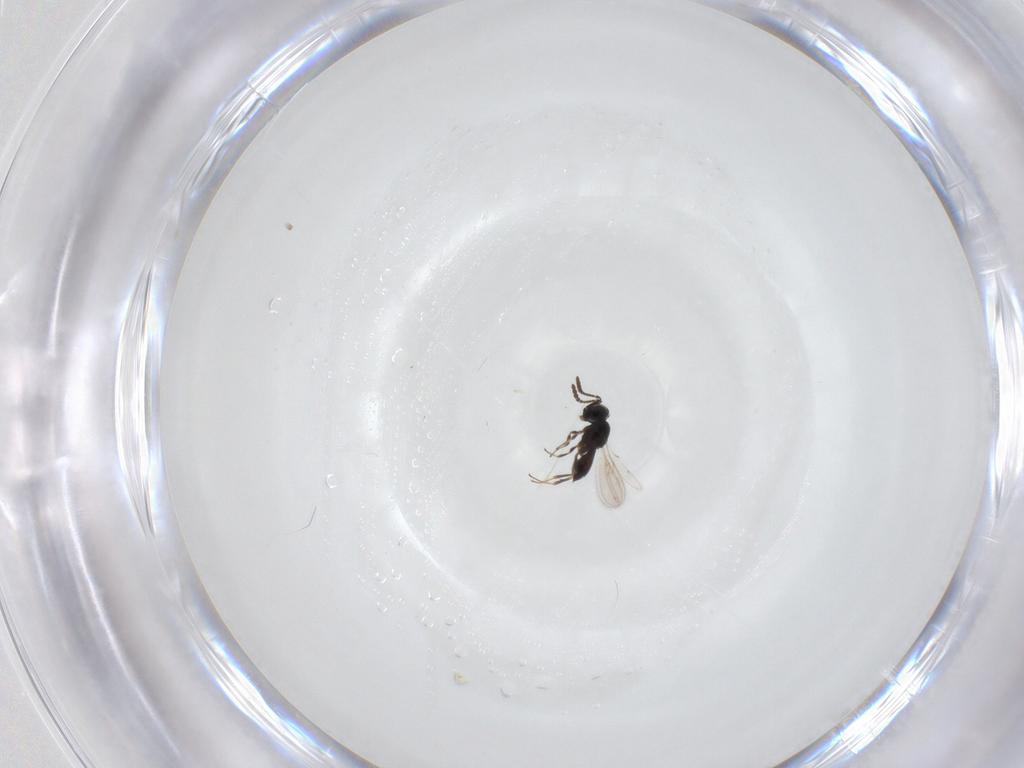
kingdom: Animalia
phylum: Arthropoda
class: Insecta
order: Hymenoptera
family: Scelionidae
